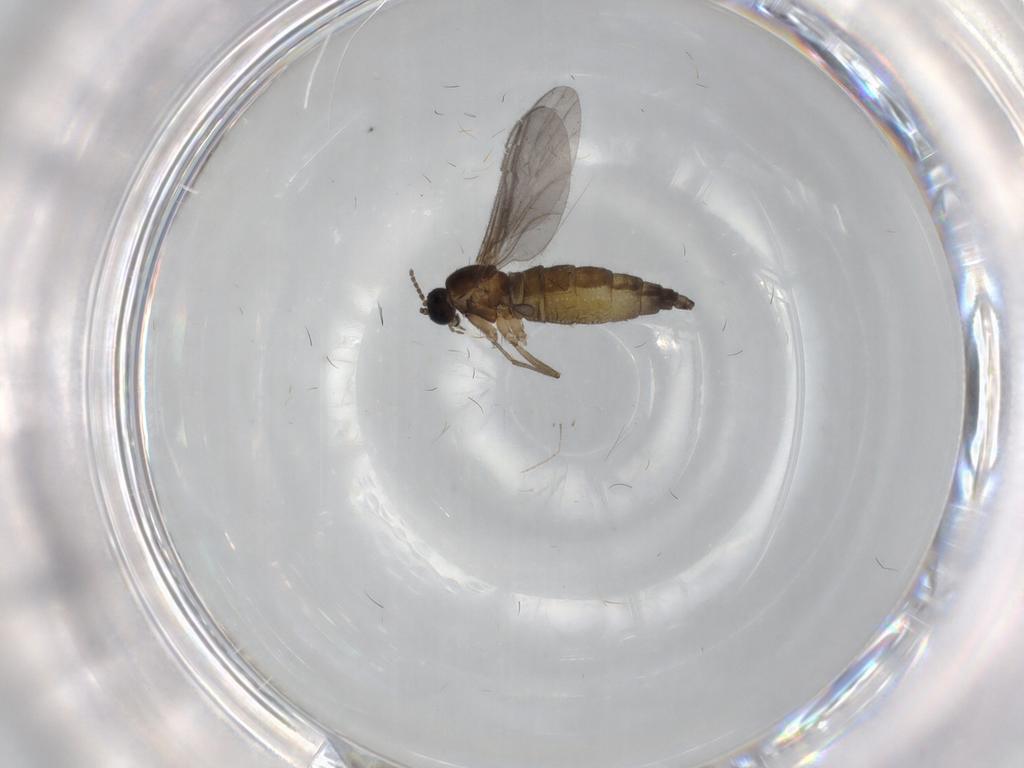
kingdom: Animalia
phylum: Arthropoda
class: Insecta
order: Diptera
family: Sciaridae
